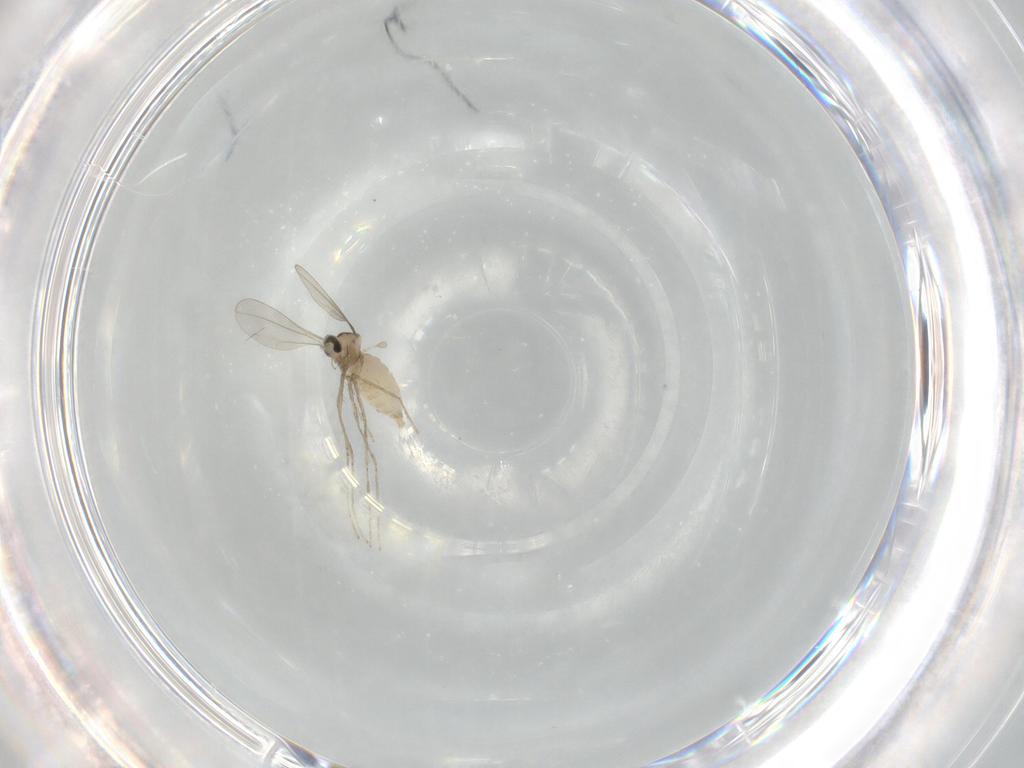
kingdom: Animalia
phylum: Arthropoda
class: Insecta
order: Diptera
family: Cecidomyiidae
